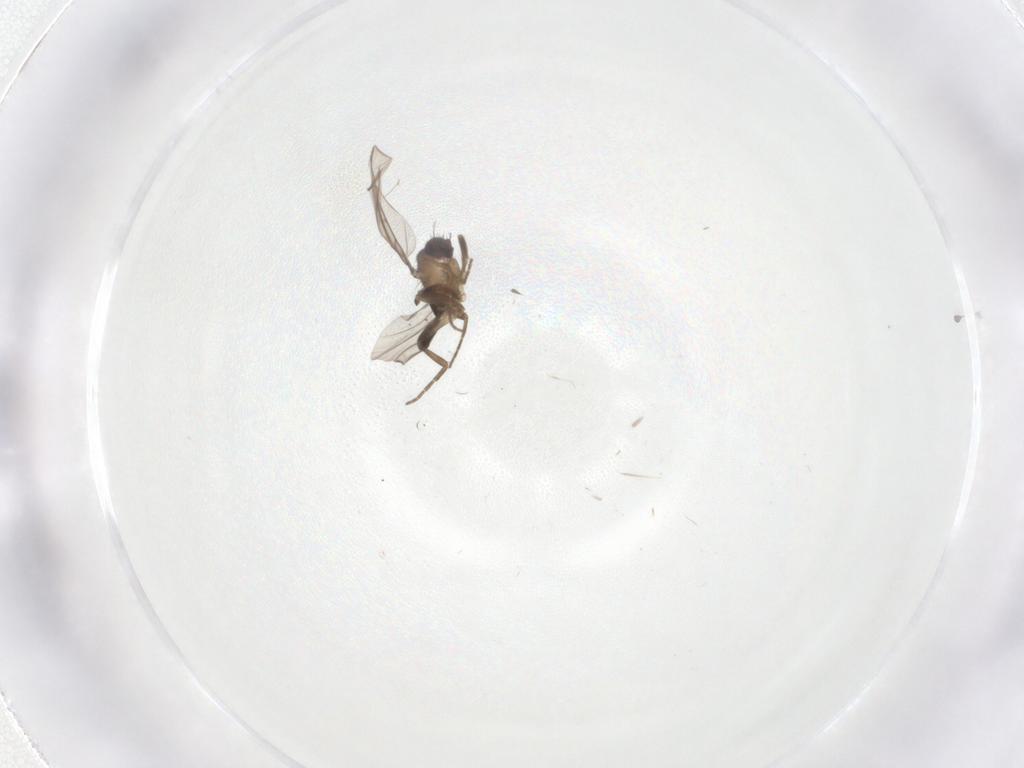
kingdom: Animalia
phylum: Arthropoda
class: Insecta
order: Diptera
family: Phoridae
